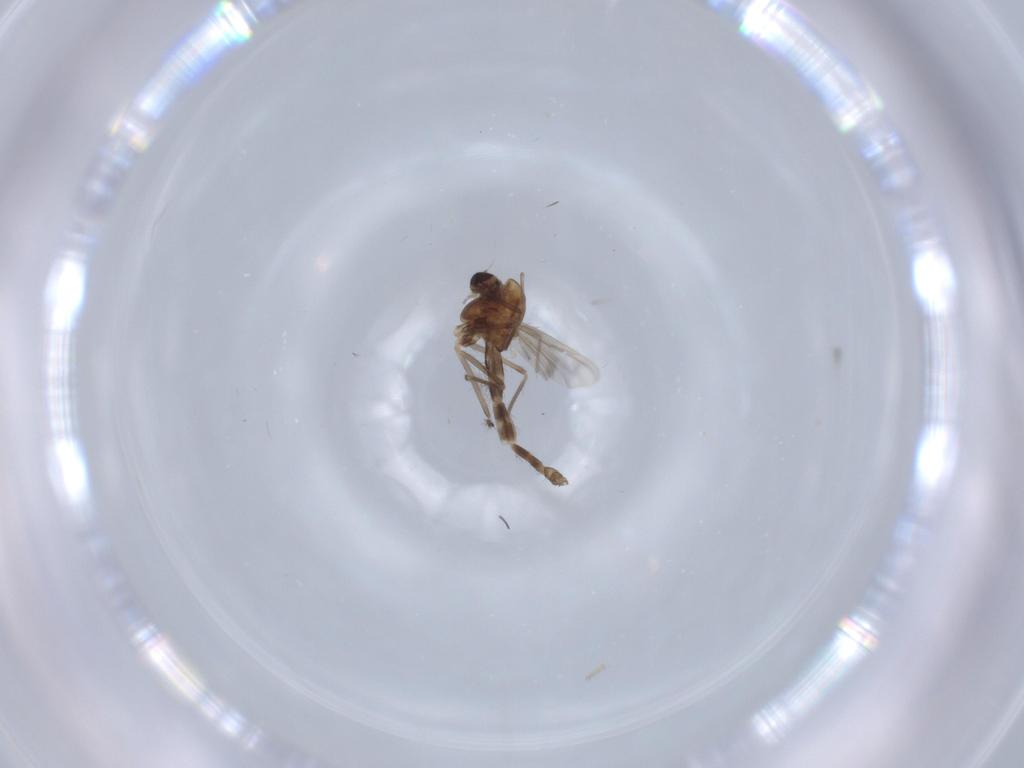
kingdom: Animalia
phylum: Arthropoda
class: Insecta
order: Diptera
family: Chironomidae
